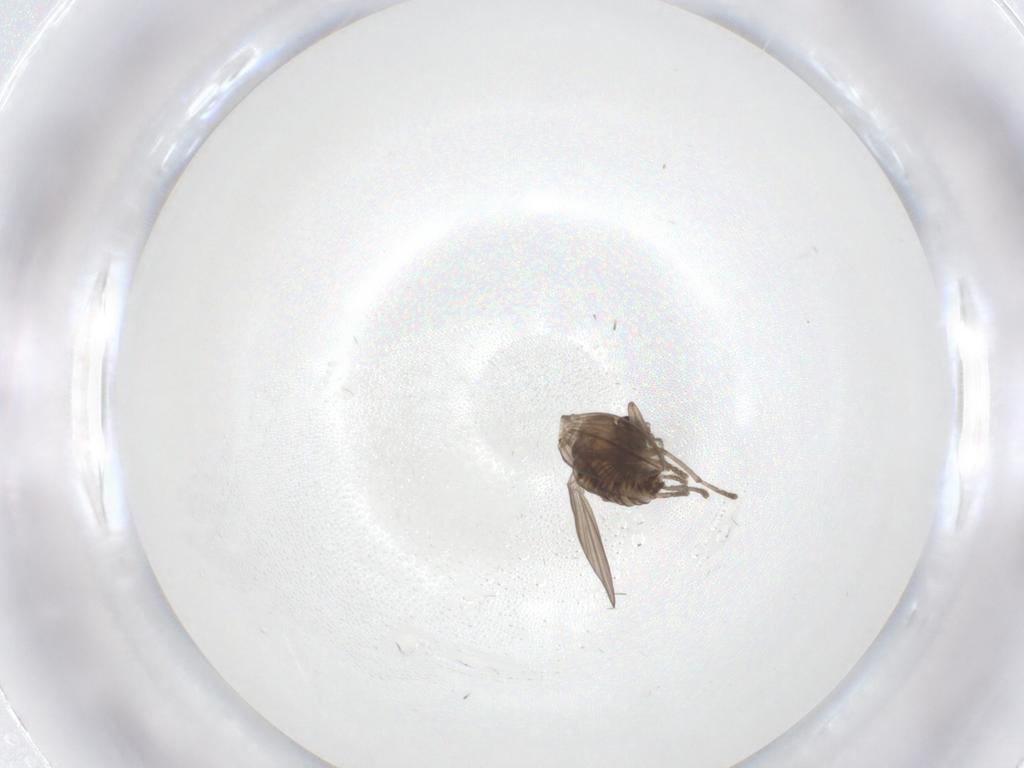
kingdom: Animalia
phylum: Arthropoda
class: Insecta
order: Diptera
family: Psychodidae
